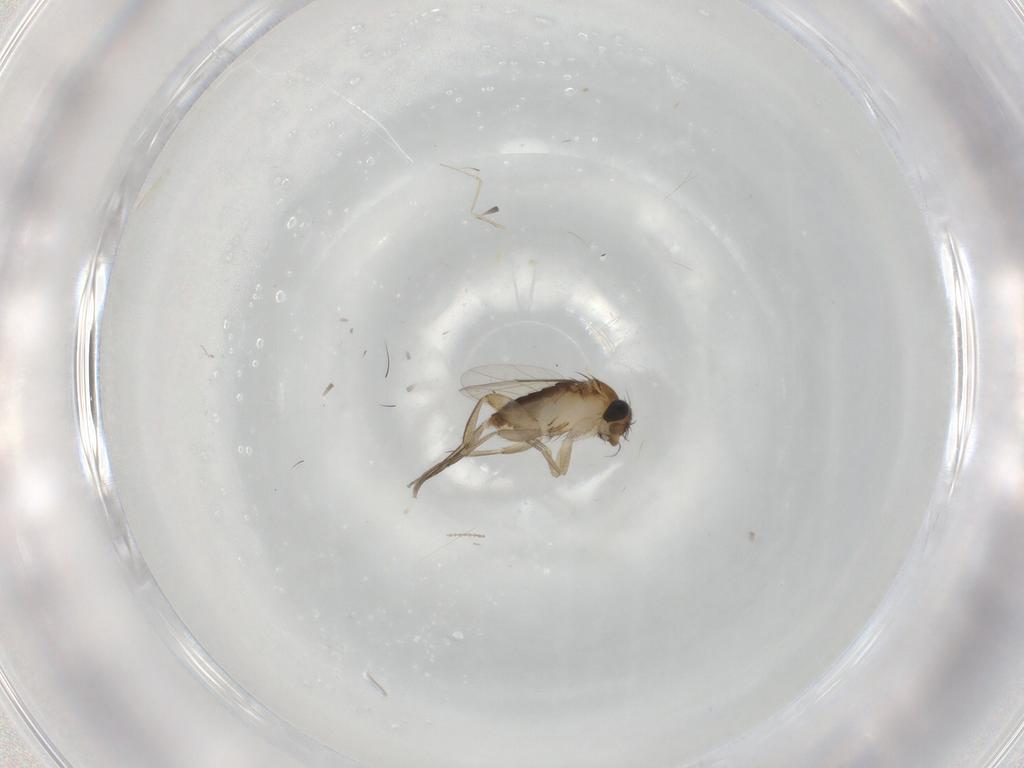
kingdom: Animalia
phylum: Arthropoda
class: Insecta
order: Diptera
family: Phoridae
